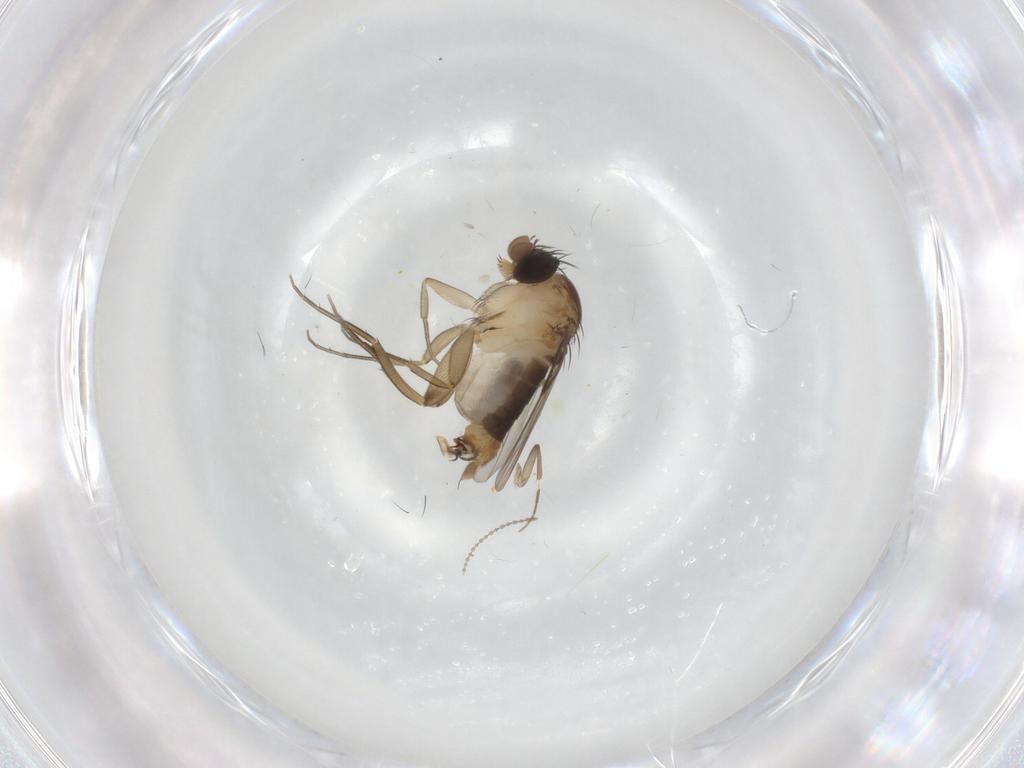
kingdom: Animalia
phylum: Arthropoda
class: Insecta
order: Diptera
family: Phoridae
